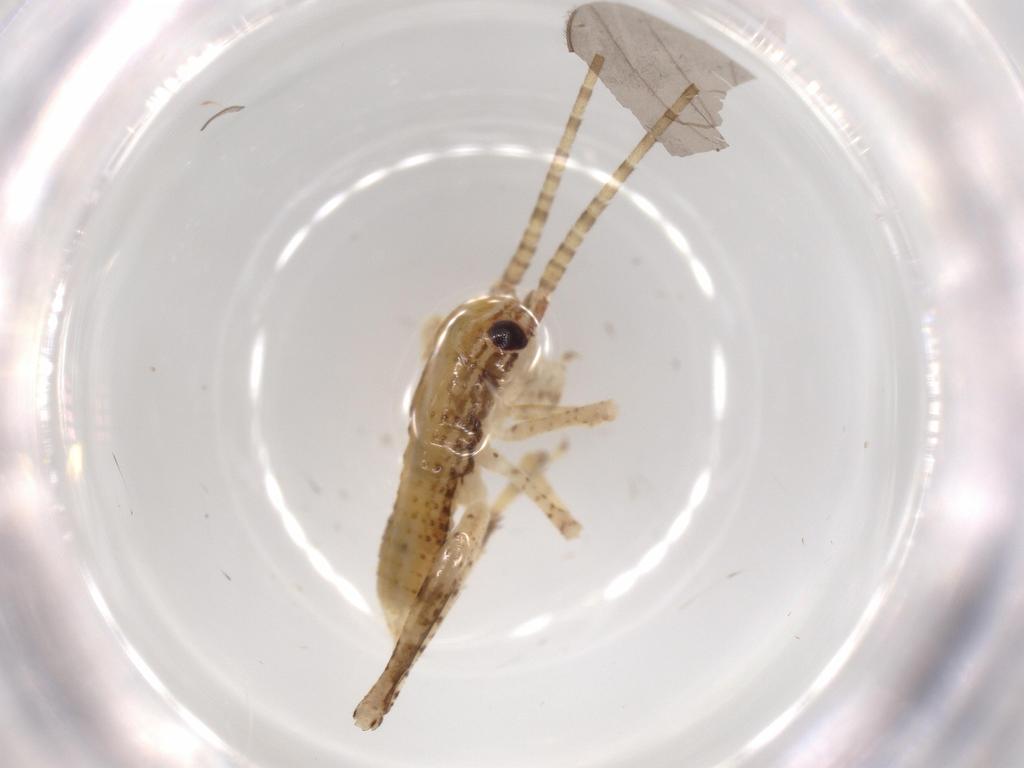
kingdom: Animalia
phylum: Arthropoda
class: Insecta
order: Orthoptera
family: Gryllidae
